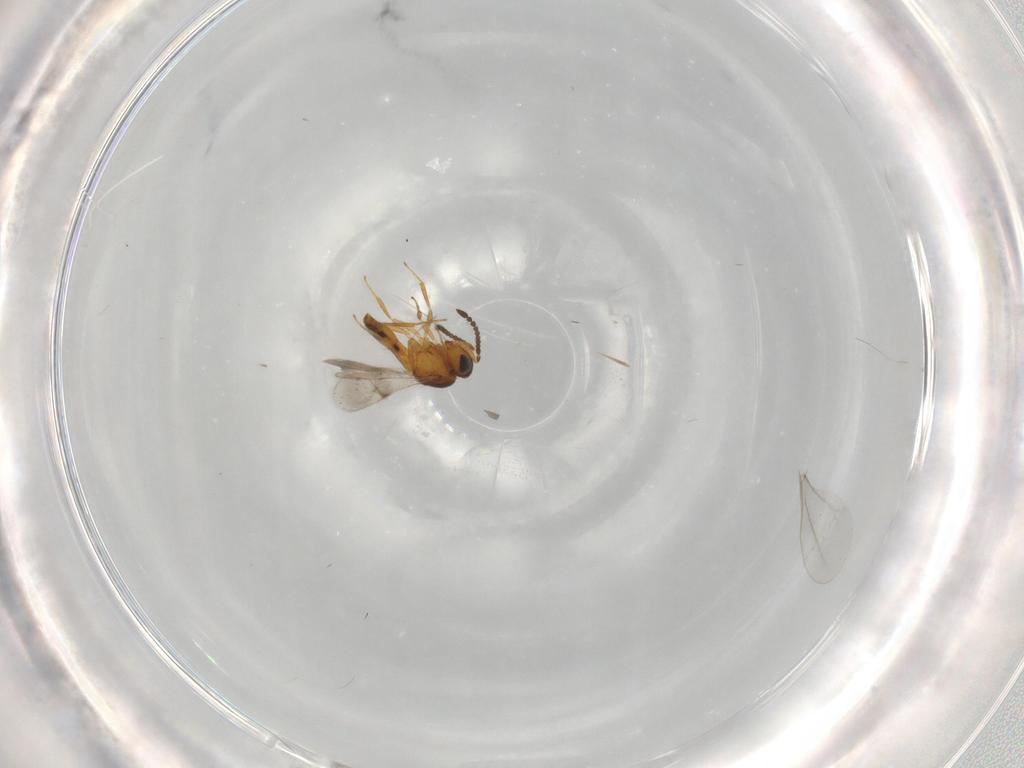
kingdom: Animalia
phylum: Arthropoda
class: Insecta
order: Hymenoptera
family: Scelionidae
